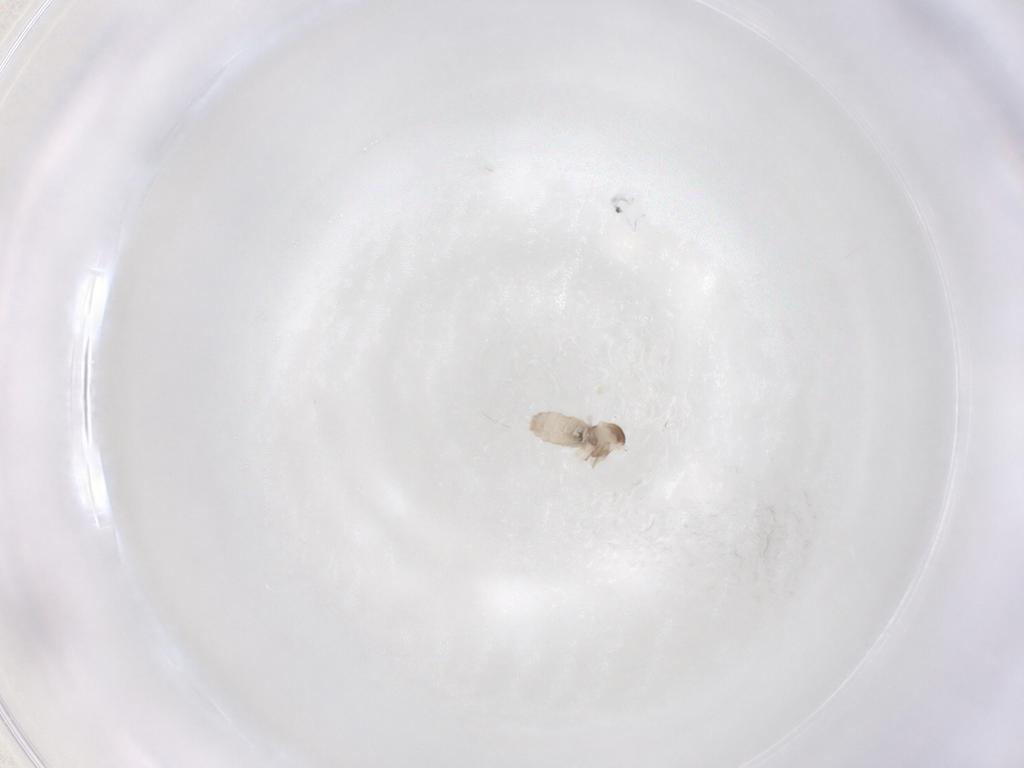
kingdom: Animalia
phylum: Arthropoda
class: Insecta
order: Diptera
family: Cecidomyiidae
